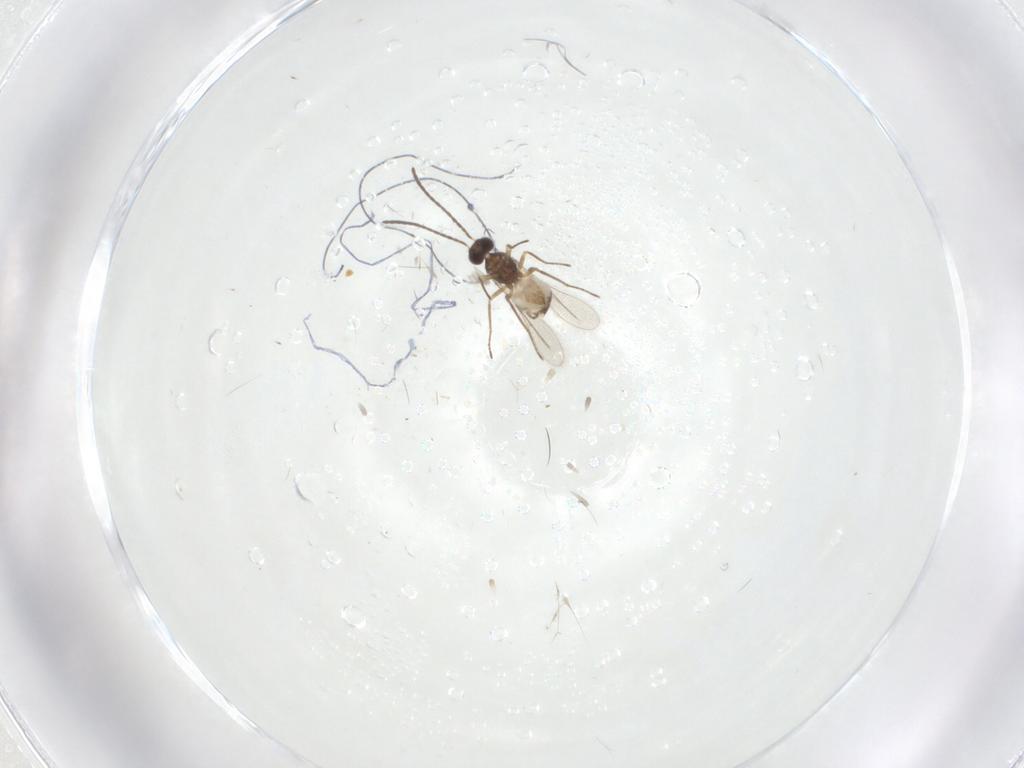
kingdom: Animalia
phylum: Arthropoda
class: Insecta
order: Diptera
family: Sciaridae
